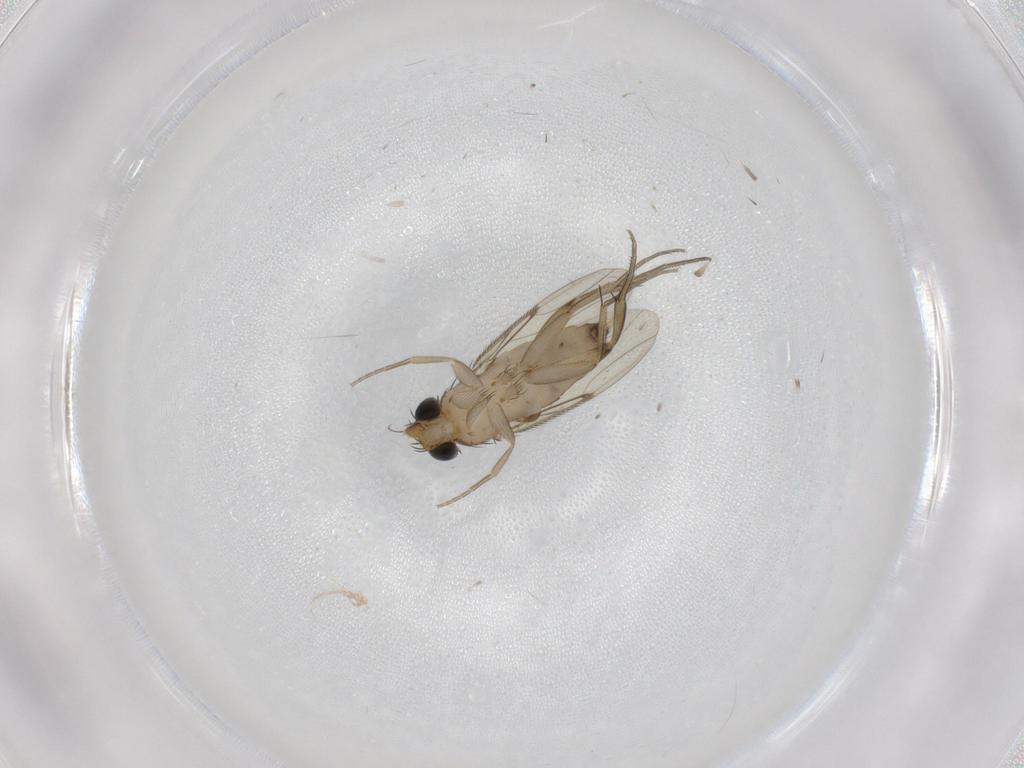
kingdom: Animalia
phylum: Arthropoda
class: Insecta
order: Diptera
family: Phoridae
